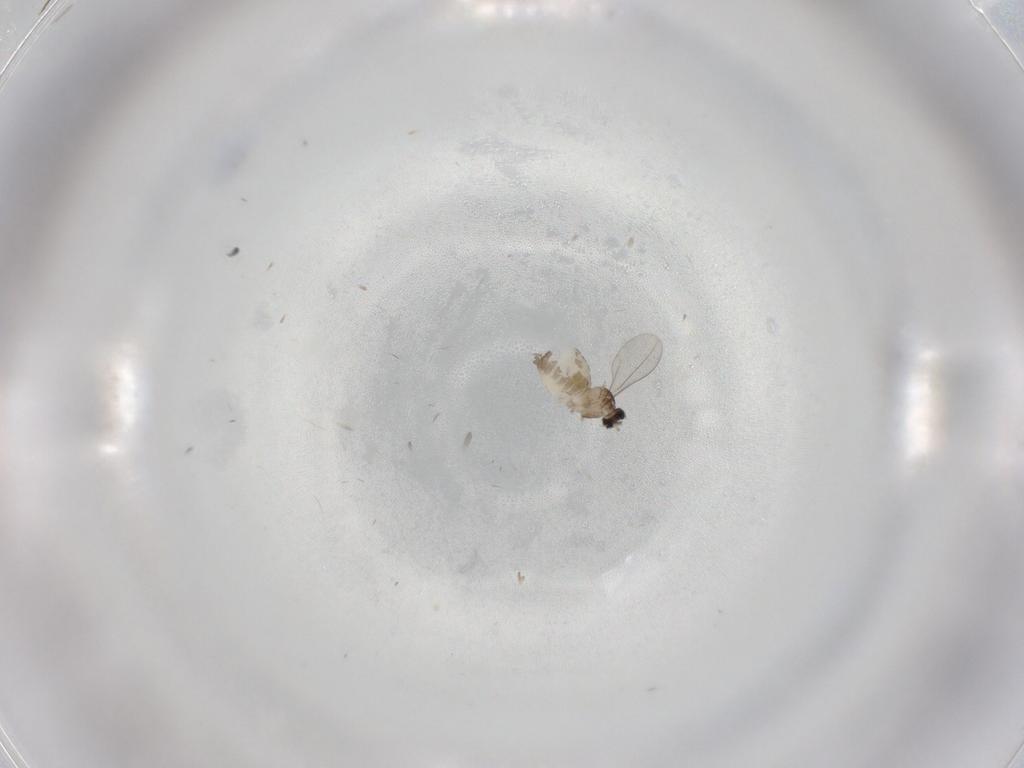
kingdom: Animalia
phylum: Arthropoda
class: Insecta
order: Diptera
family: Cecidomyiidae
